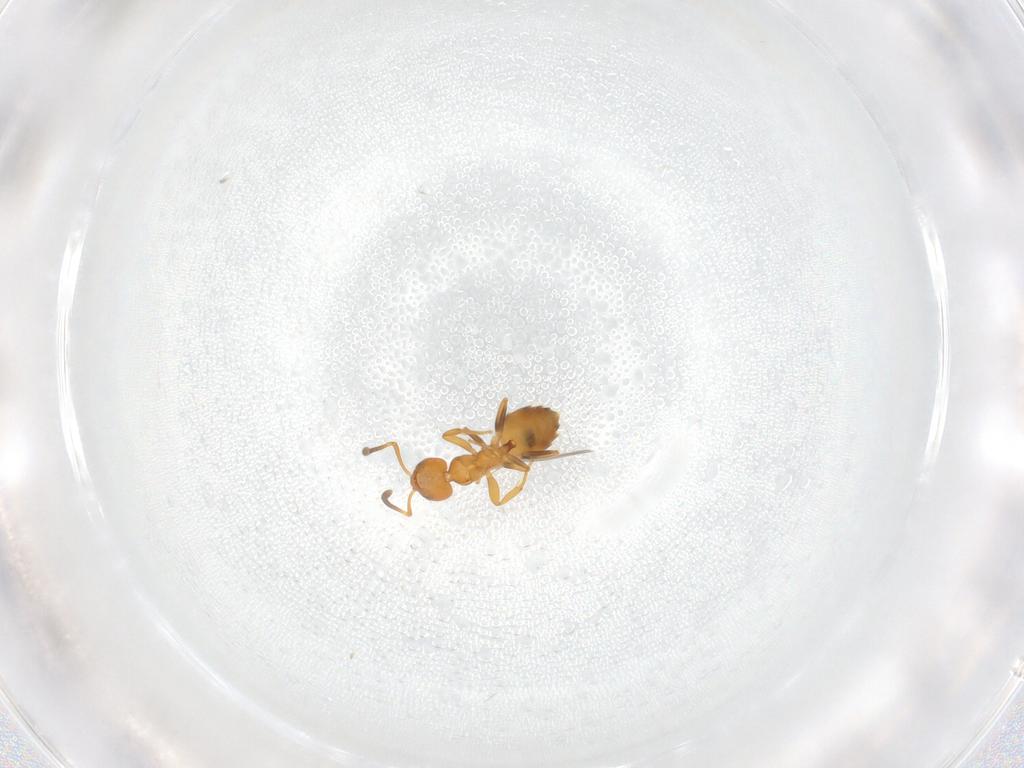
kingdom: Animalia
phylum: Arthropoda
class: Insecta
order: Hymenoptera
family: Formicidae
